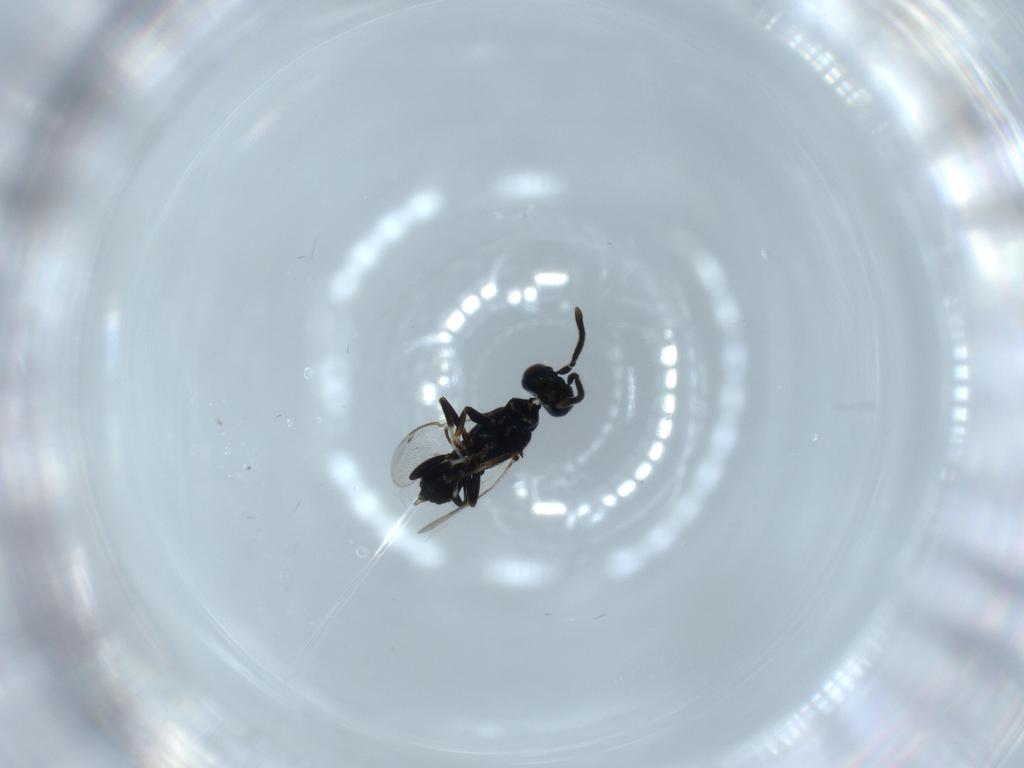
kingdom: Animalia
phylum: Arthropoda
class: Insecta
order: Hymenoptera
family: Eupelmidae
